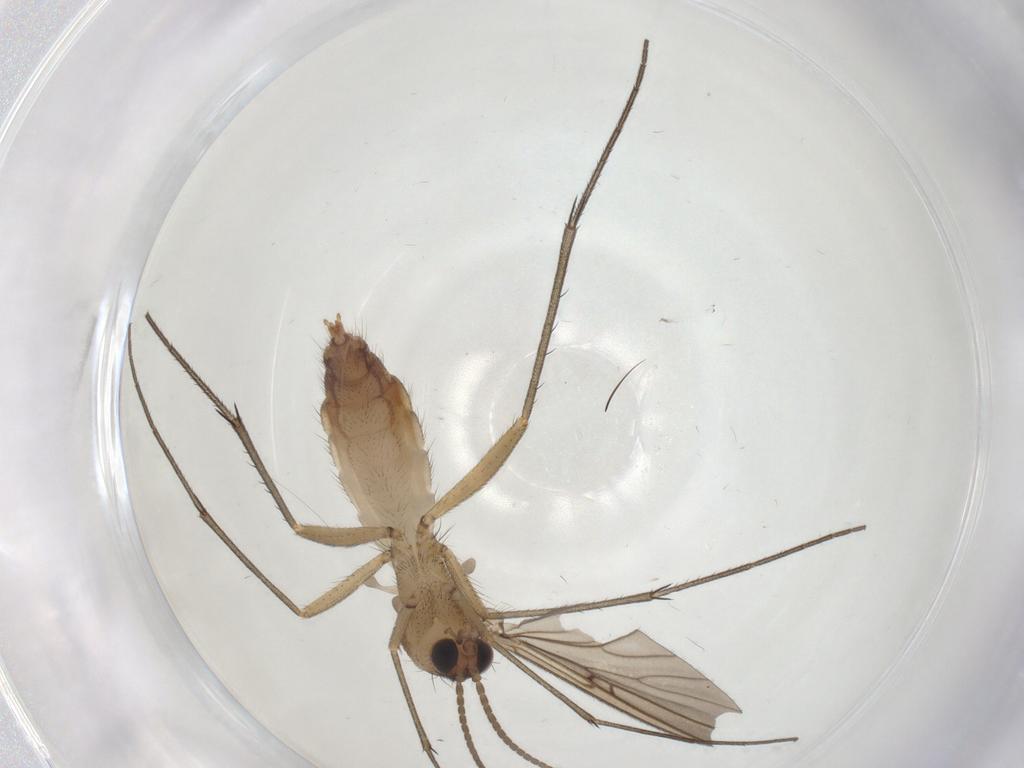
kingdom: Animalia
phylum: Arthropoda
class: Insecta
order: Diptera
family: Mycetophilidae
